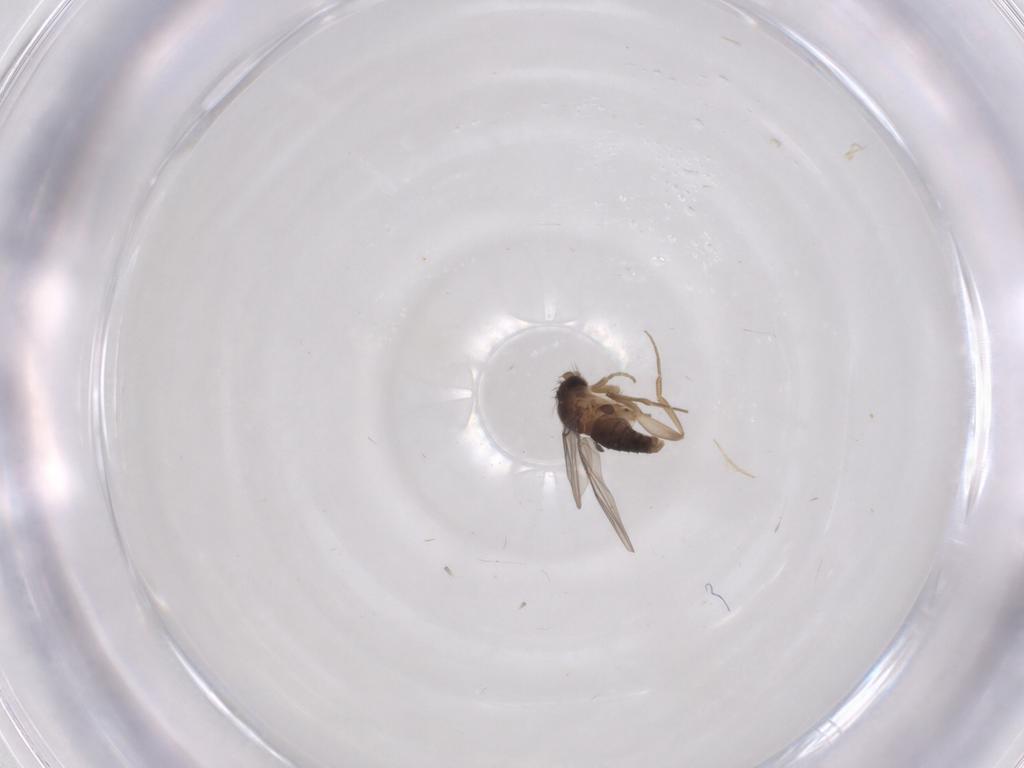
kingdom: Animalia
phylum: Arthropoda
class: Insecta
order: Diptera
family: Phoridae
